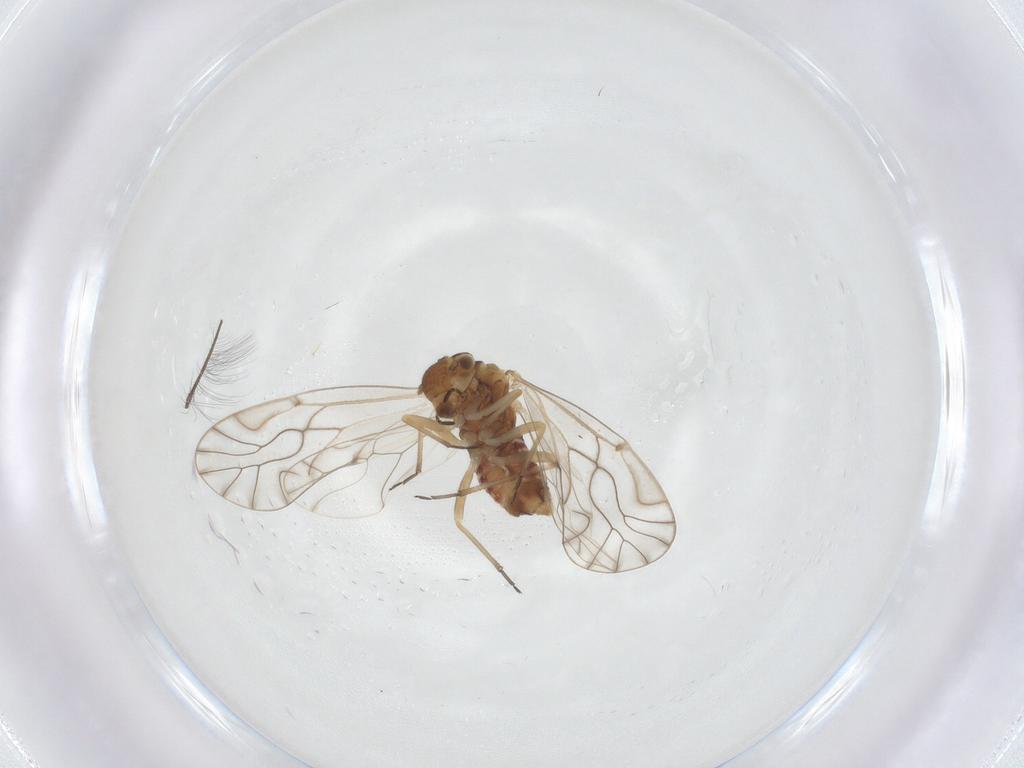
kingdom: Animalia
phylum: Arthropoda
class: Insecta
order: Psocodea
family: Lachesillidae
